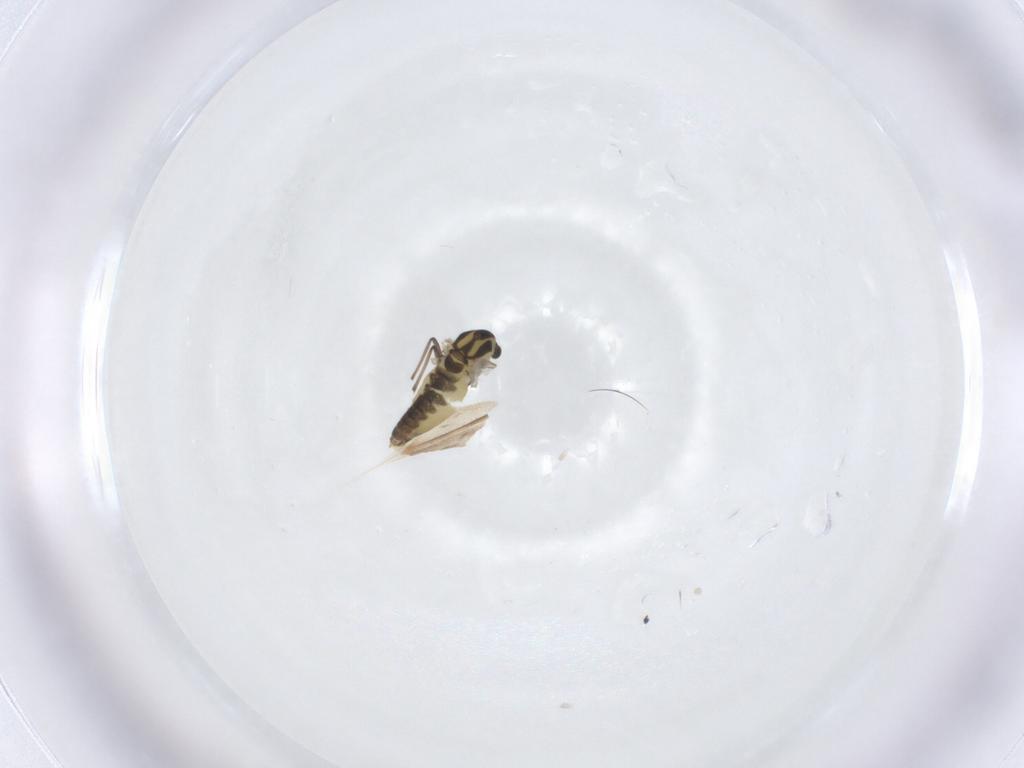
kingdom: Animalia
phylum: Arthropoda
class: Insecta
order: Diptera
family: Chironomidae
